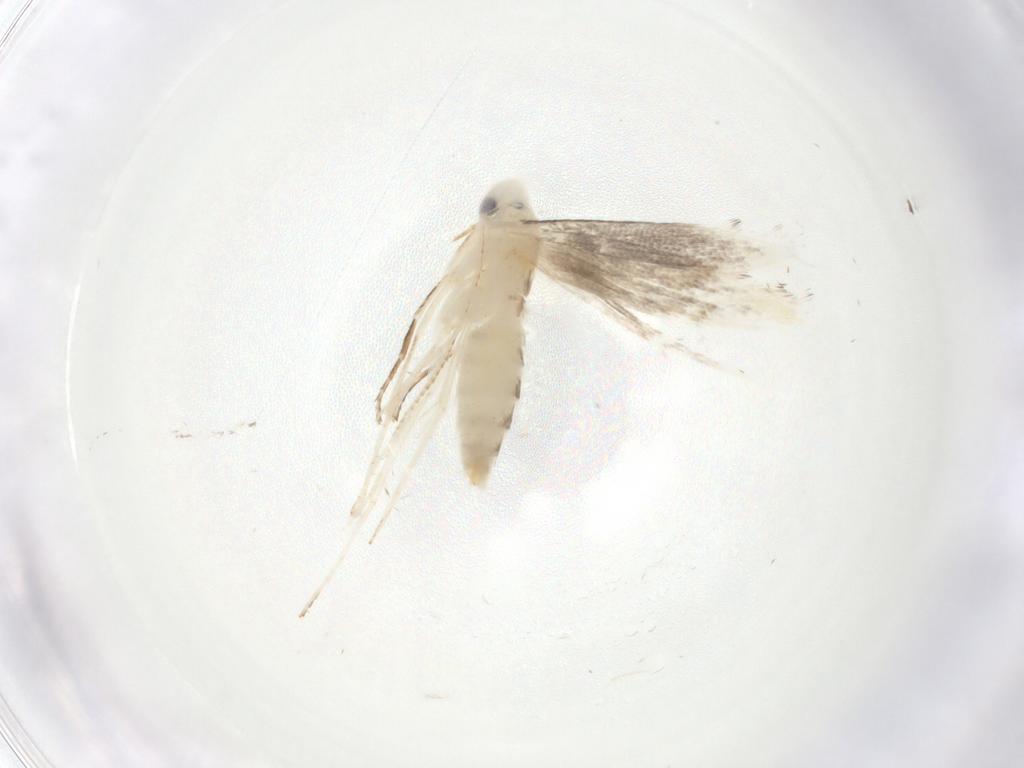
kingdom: Animalia
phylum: Arthropoda
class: Insecta
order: Lepidoptera
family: Gracillariidae
